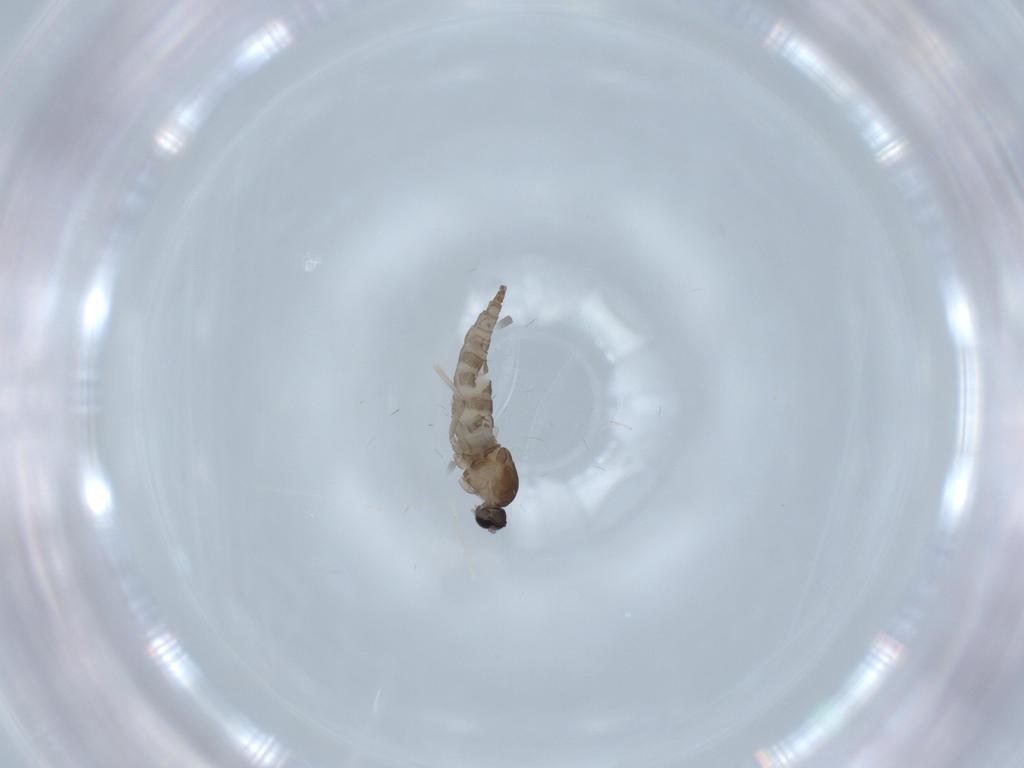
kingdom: Animalia
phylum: Arthropoda
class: Insecta
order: Diptera
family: Cecidomyiidae
